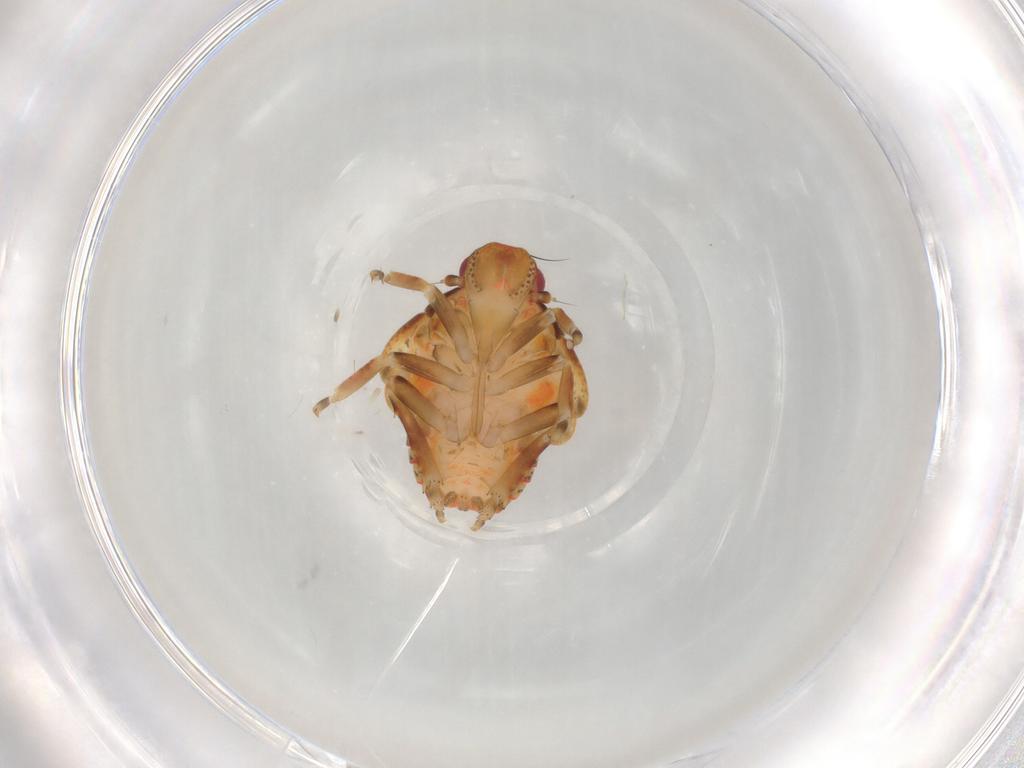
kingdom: Animalia
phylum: Arthropoda
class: Insecta
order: Hemiptera
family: Flatidae
